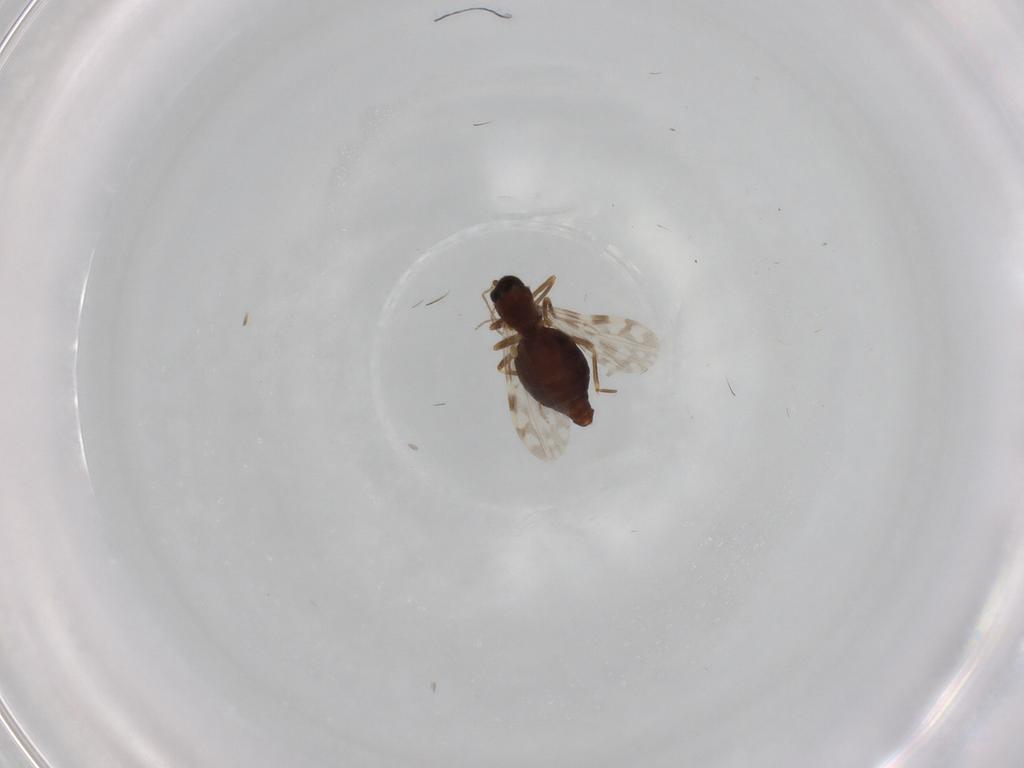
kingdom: Animalia
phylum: Arthropoda
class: Insecta
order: Diptera
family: Ceratopogonidae
